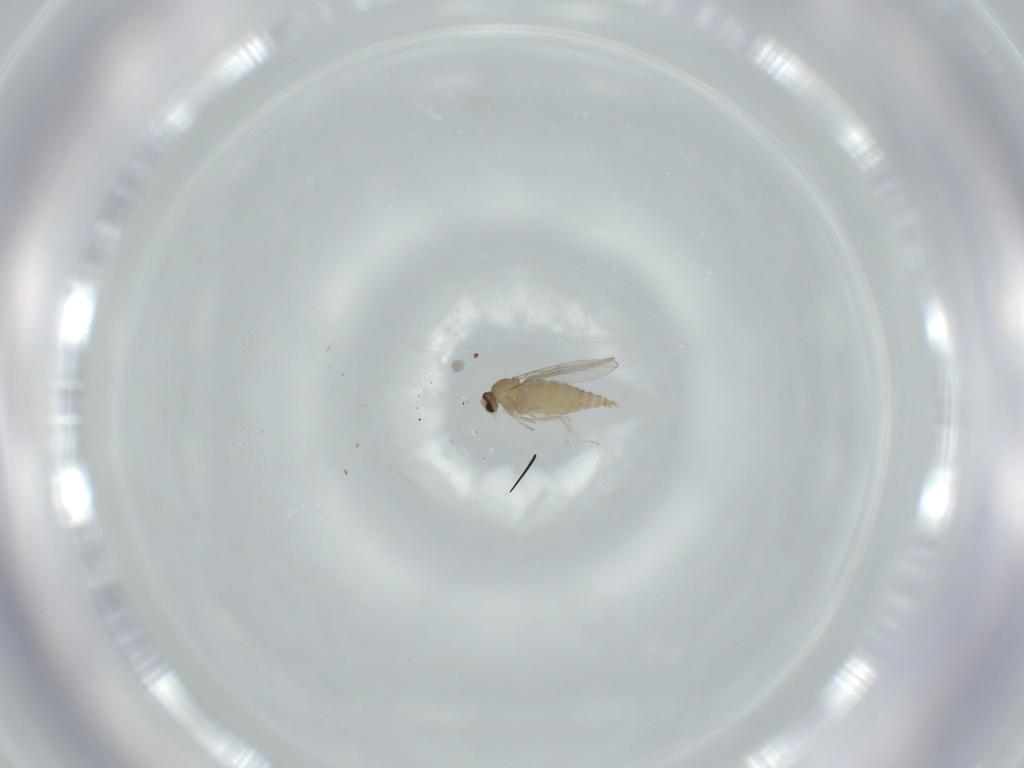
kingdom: Animalia
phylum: Arthropoda
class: Insecta
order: Diptera
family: Cecidomyiidae
